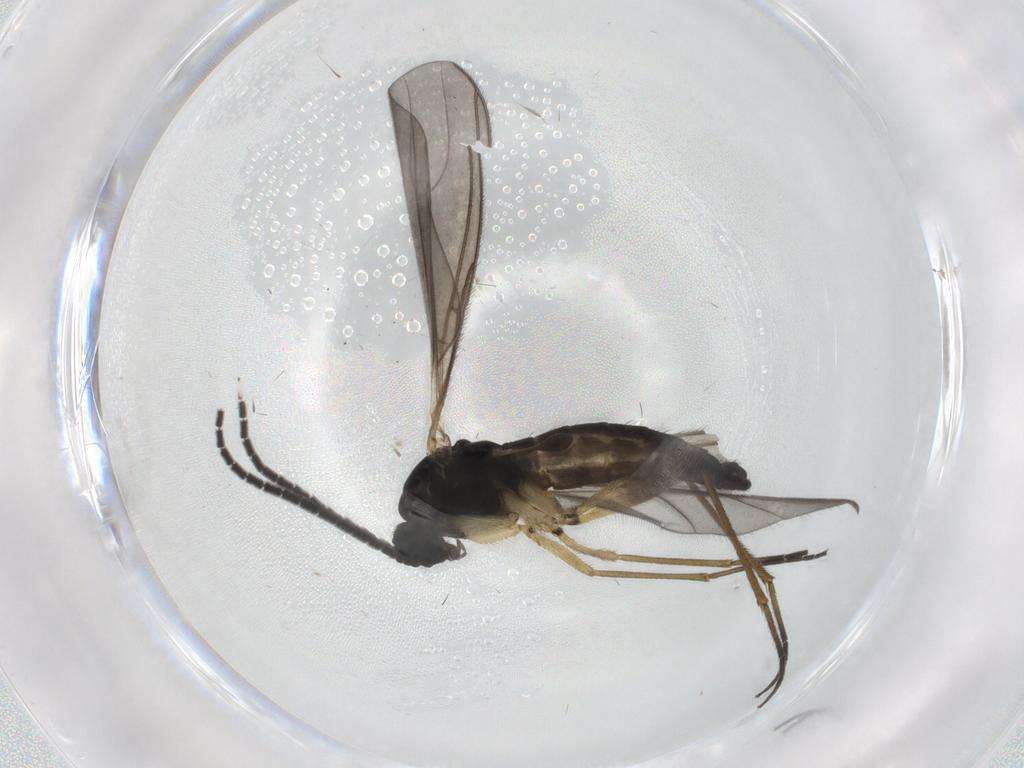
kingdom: Animalia
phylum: Arthropoda
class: Insecta
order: Diptera
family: Sciaridae
